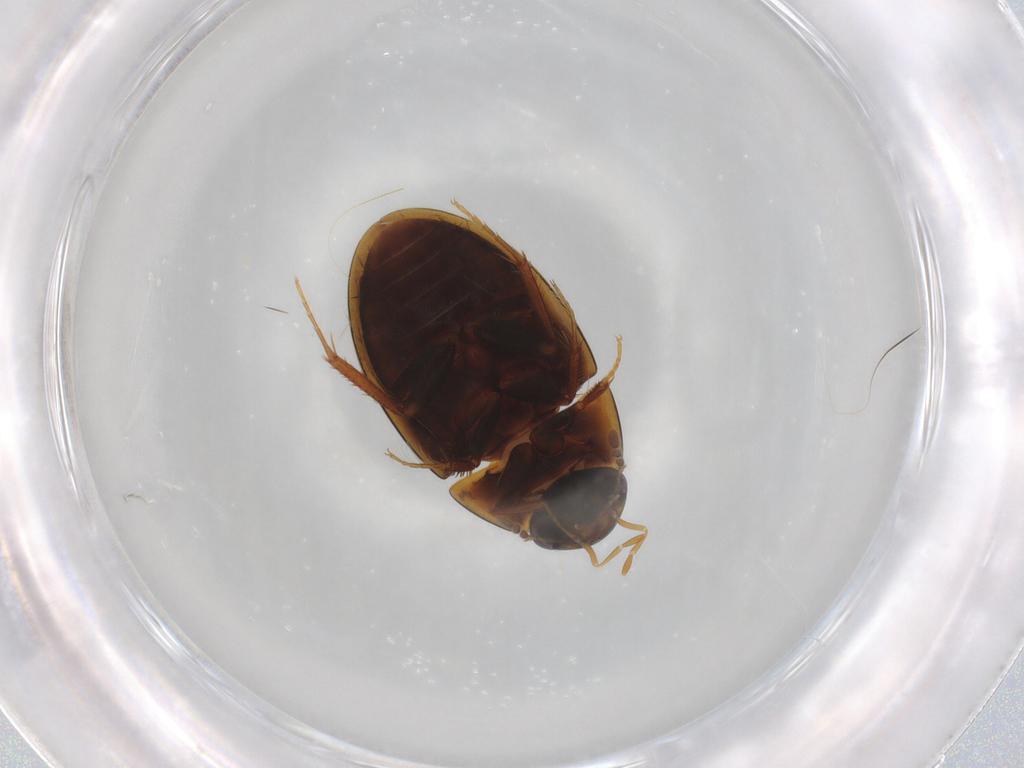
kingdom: Animalia
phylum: Arthropoda
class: Insecta
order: Coleoptera
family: Hydrophilidae
